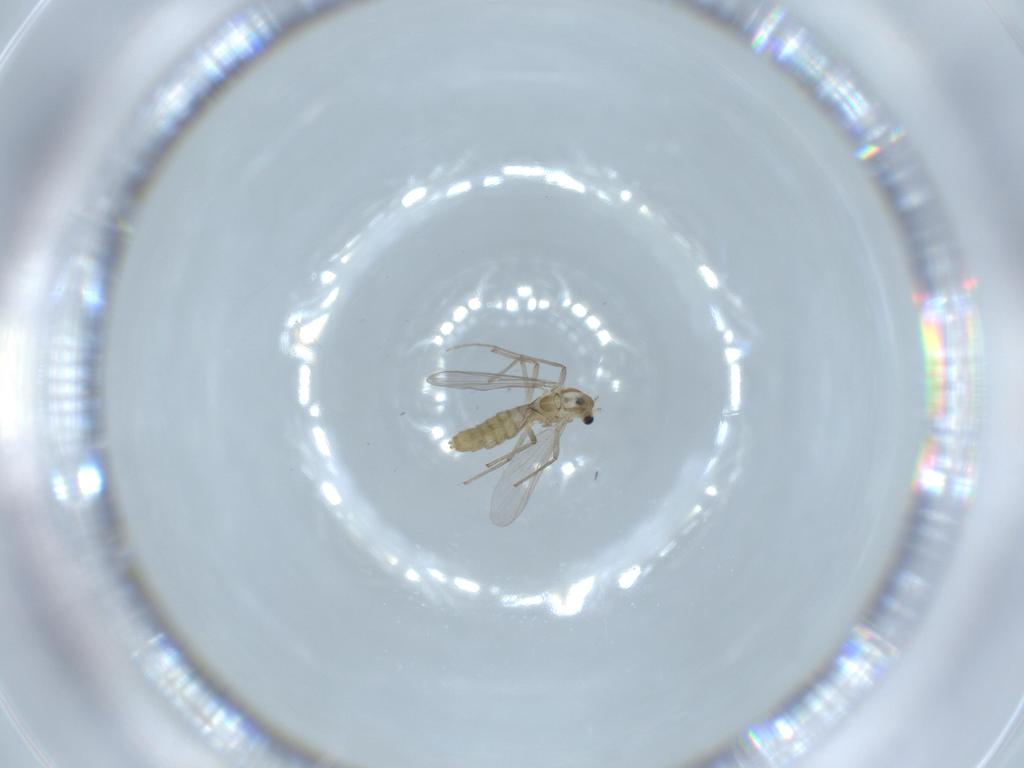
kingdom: Animalia
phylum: Arthropoda
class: Insecta
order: Diptera
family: Chironomidae
